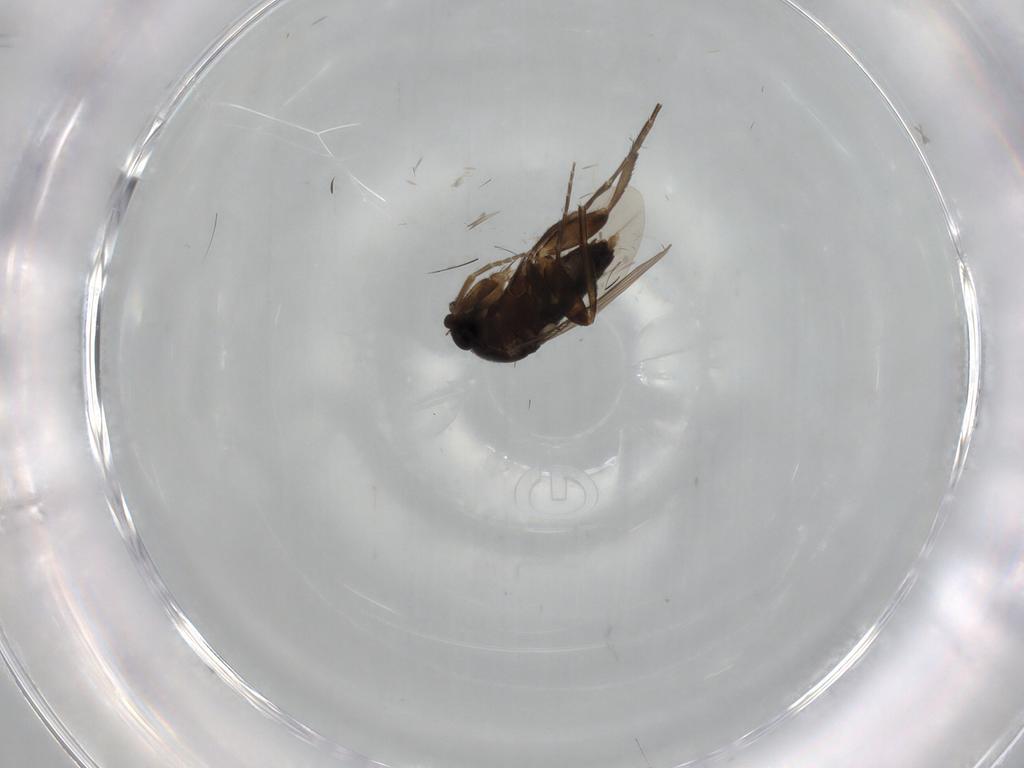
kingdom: Animalia
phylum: Arthropoda
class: Insecta
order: Diptera
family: Phoridae
